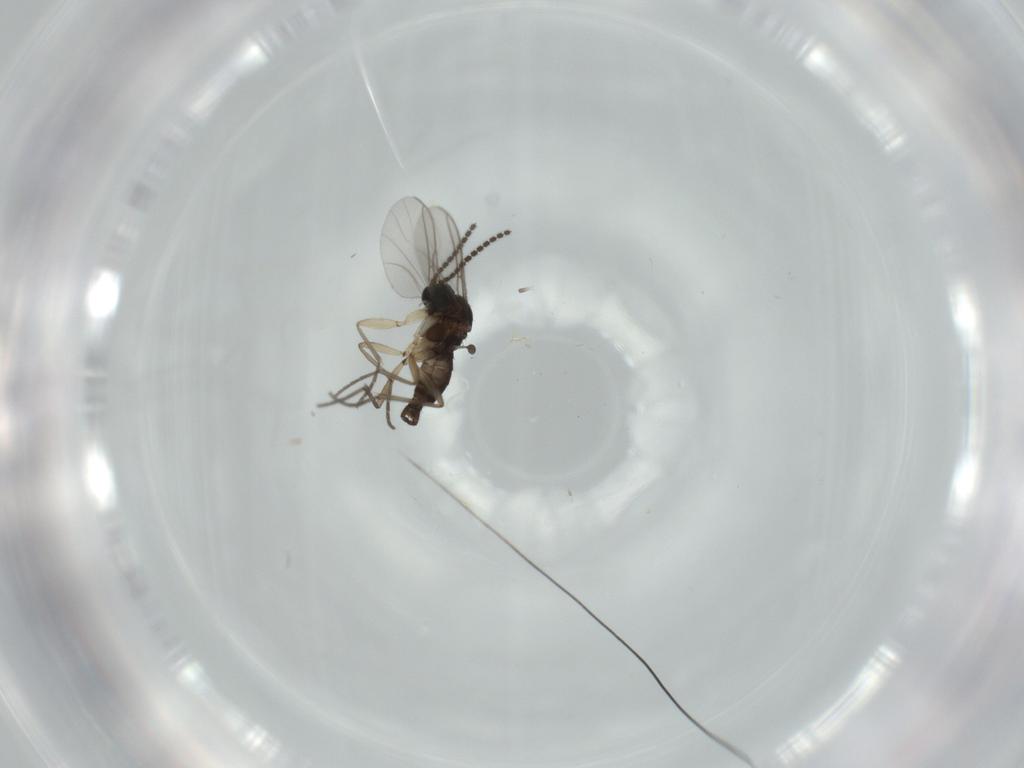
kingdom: Animalia
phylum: Arthropoda
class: Insecta
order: Diptera
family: Sciaridae
